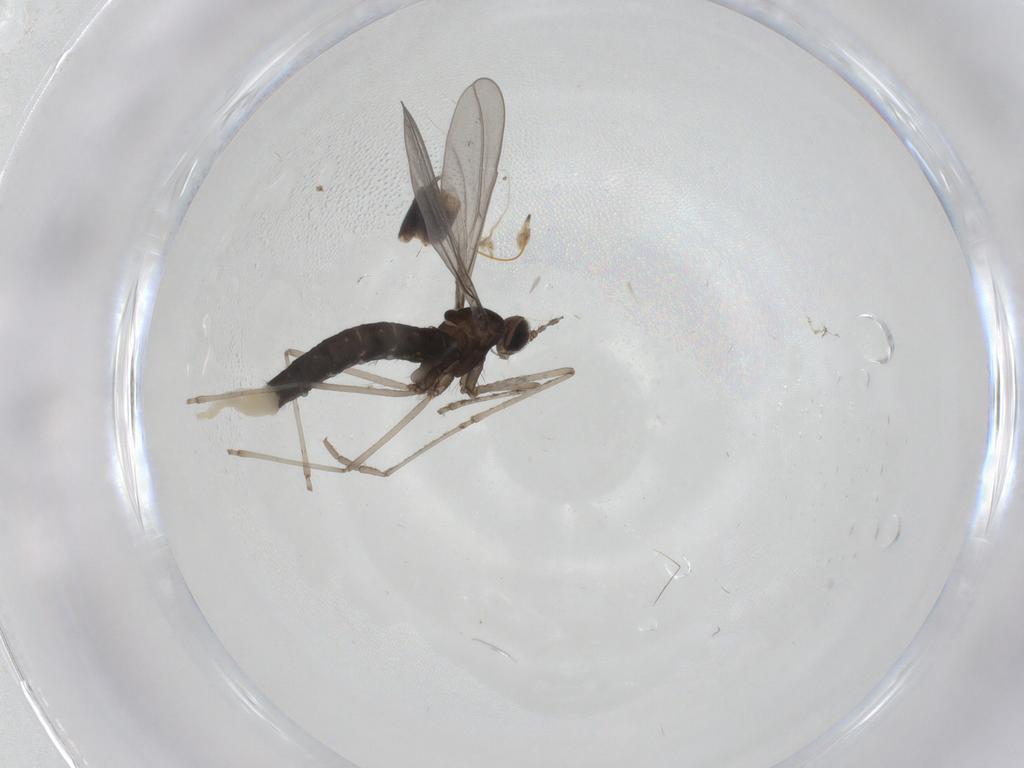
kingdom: Animalia
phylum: Arthropoda
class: Insecta
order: Diptera
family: Cecidomyiidae
